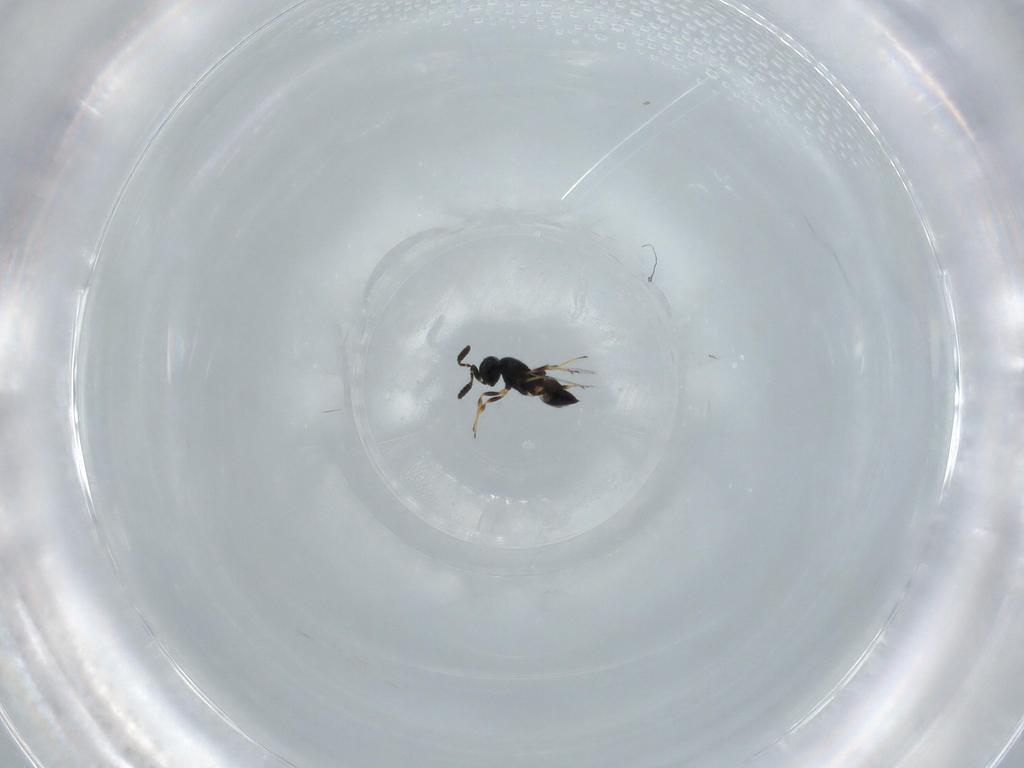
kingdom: Animalia
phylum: Arthropoda
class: Insecta
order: Hymenoptera
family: Scelionidae
